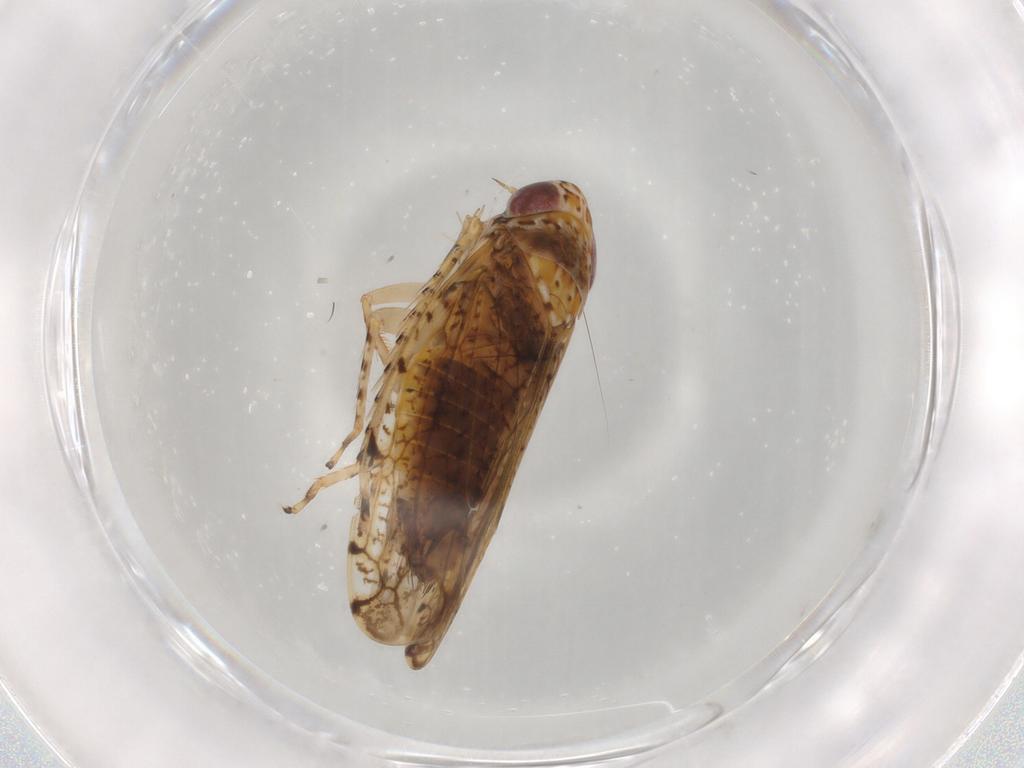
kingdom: Animalia
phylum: Arthropoda
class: Insecta
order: Hemiptera
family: Cicadellidae
